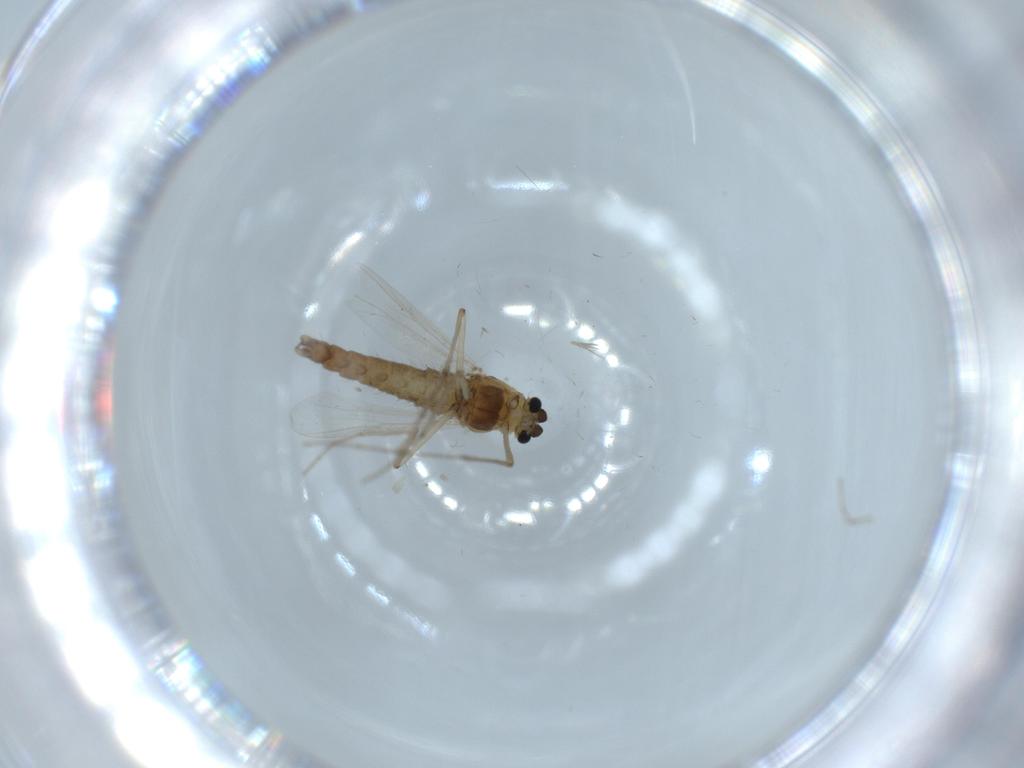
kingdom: Animalia
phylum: Arthropoda
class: Insecta
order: Diptera
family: Chironomidae
